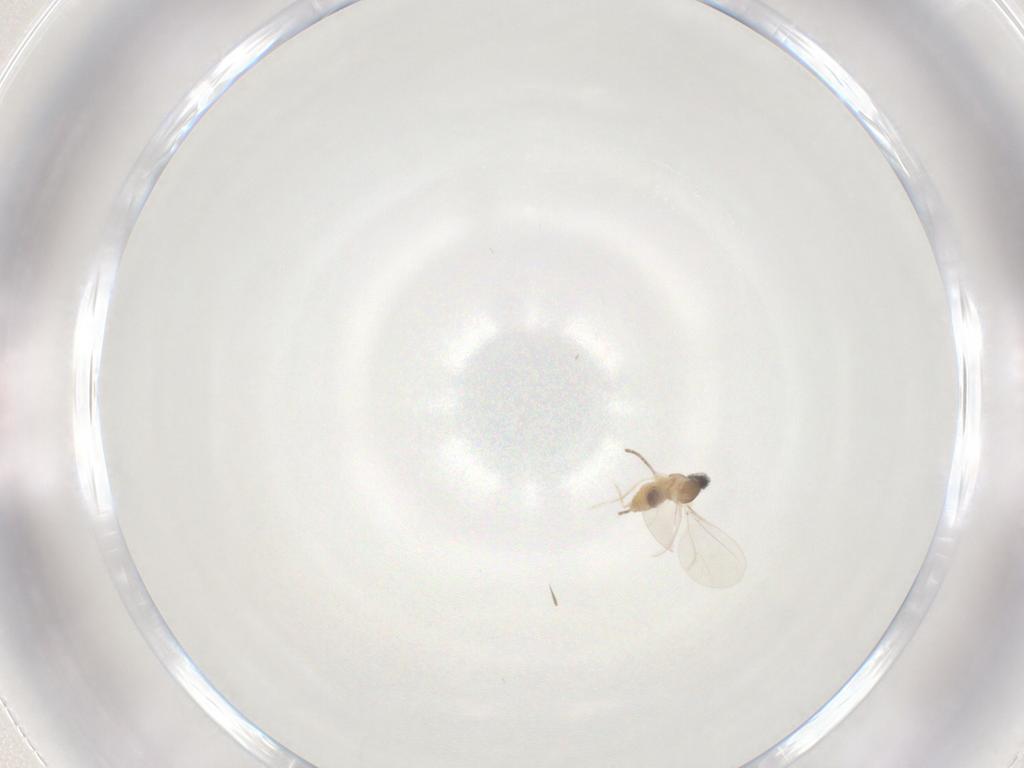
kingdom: Animalia
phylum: Arthropoda
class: Insecta
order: Diptera
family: Cecidomyiidae
